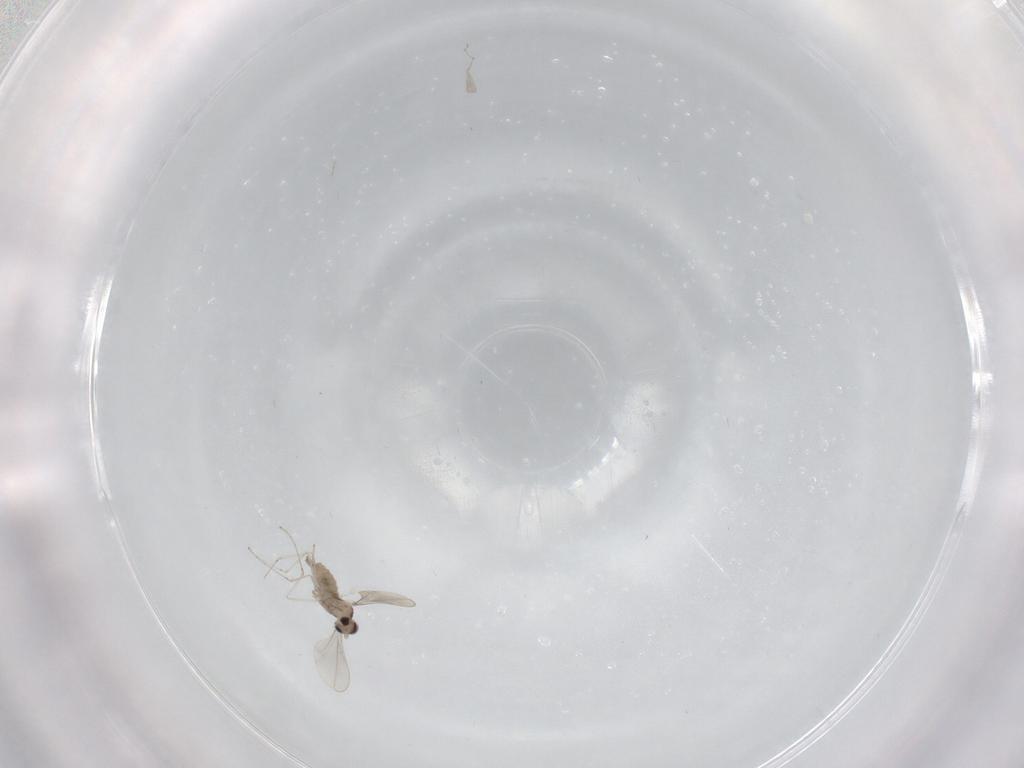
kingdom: Animalia
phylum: Arthropoda
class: Insecta
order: Diptera
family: Cecidomyiidae
